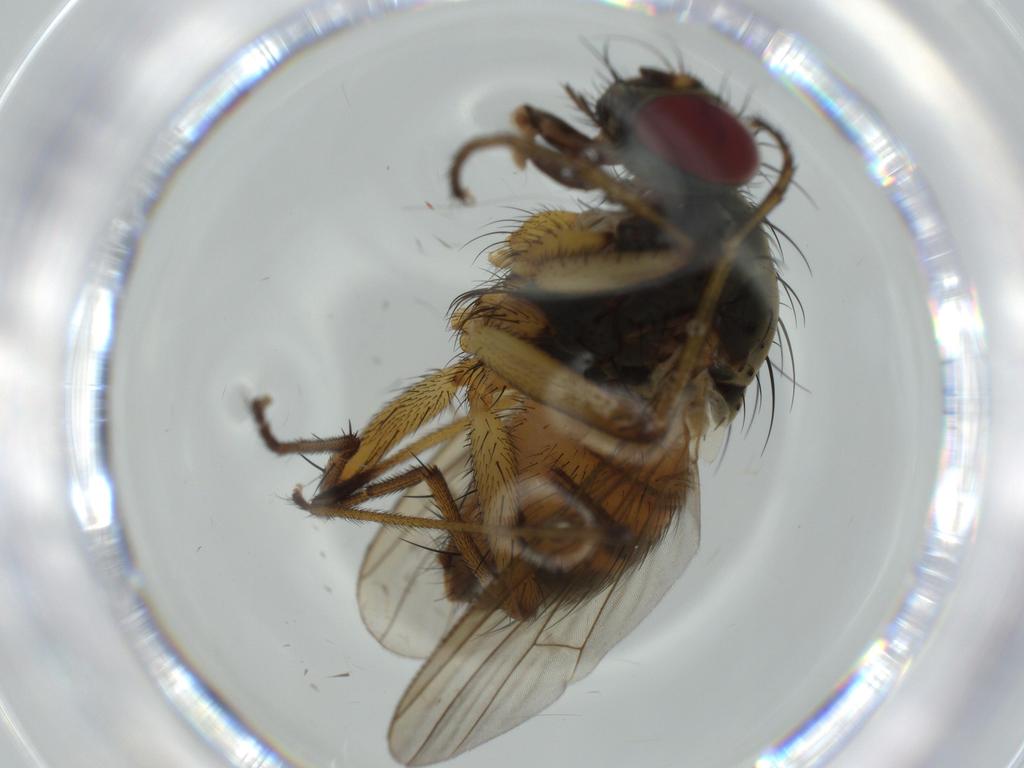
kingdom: Animalia
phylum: Arthropoda
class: Insecta
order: Diptera
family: Muscidae
